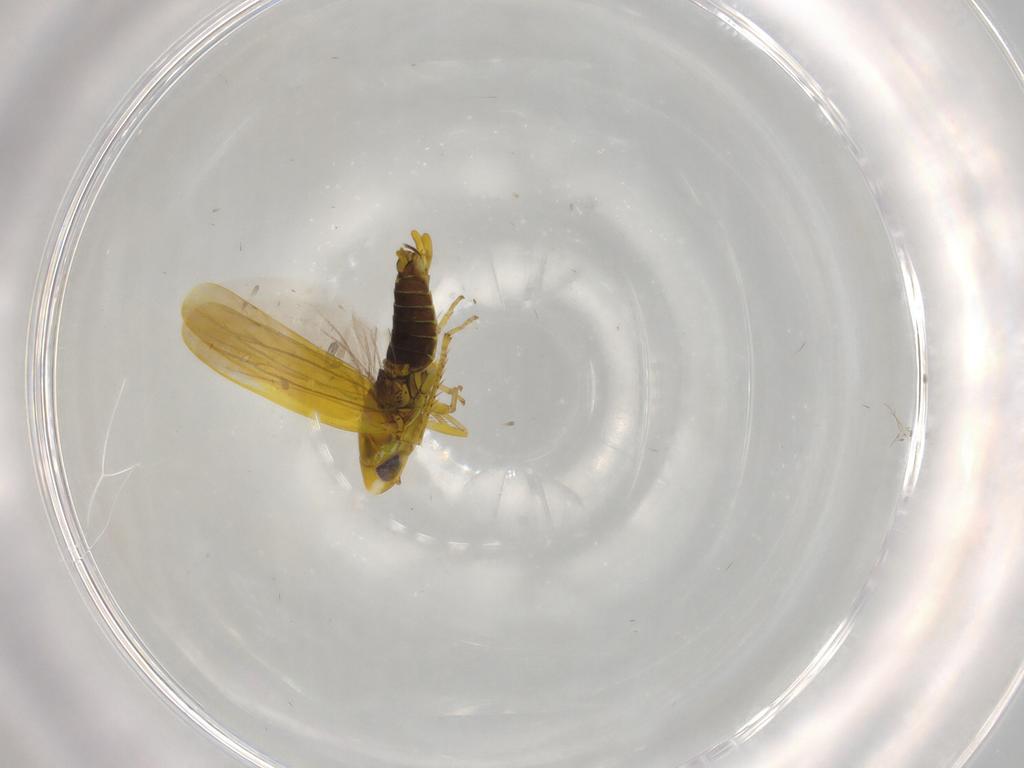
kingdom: Animalia
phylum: Arthropoda
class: Insecta
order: Hemiptera
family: Cicadellidae
